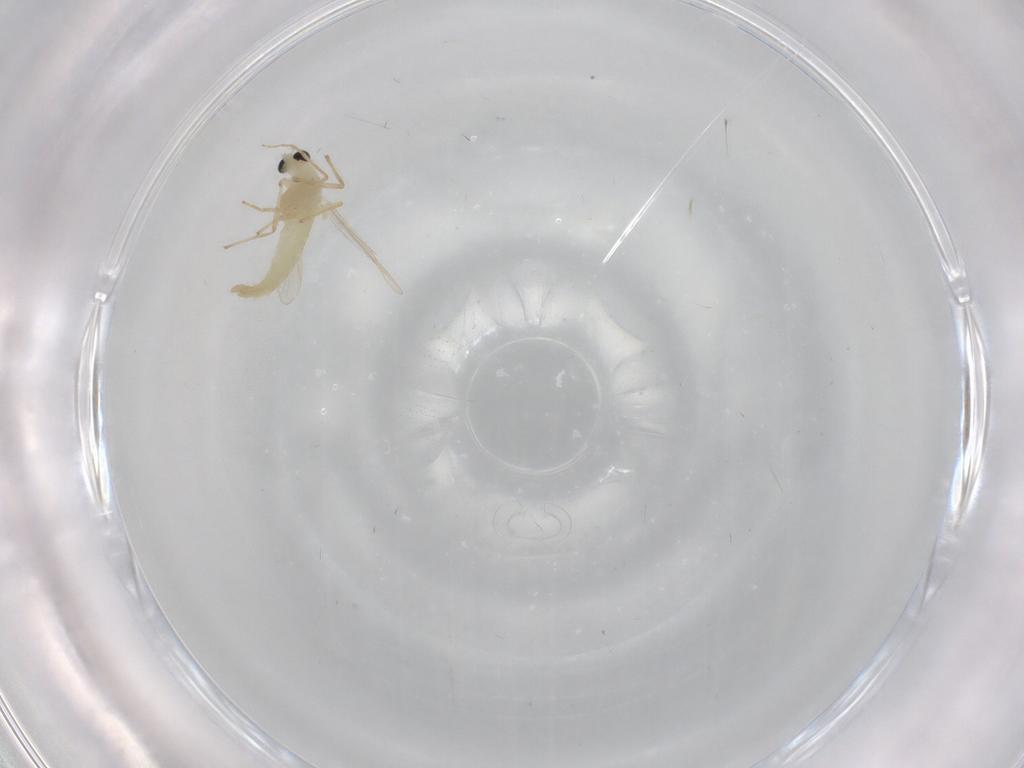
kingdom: Animalia
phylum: Arthropoda
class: Insecta
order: Diptera
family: Chironomidae
